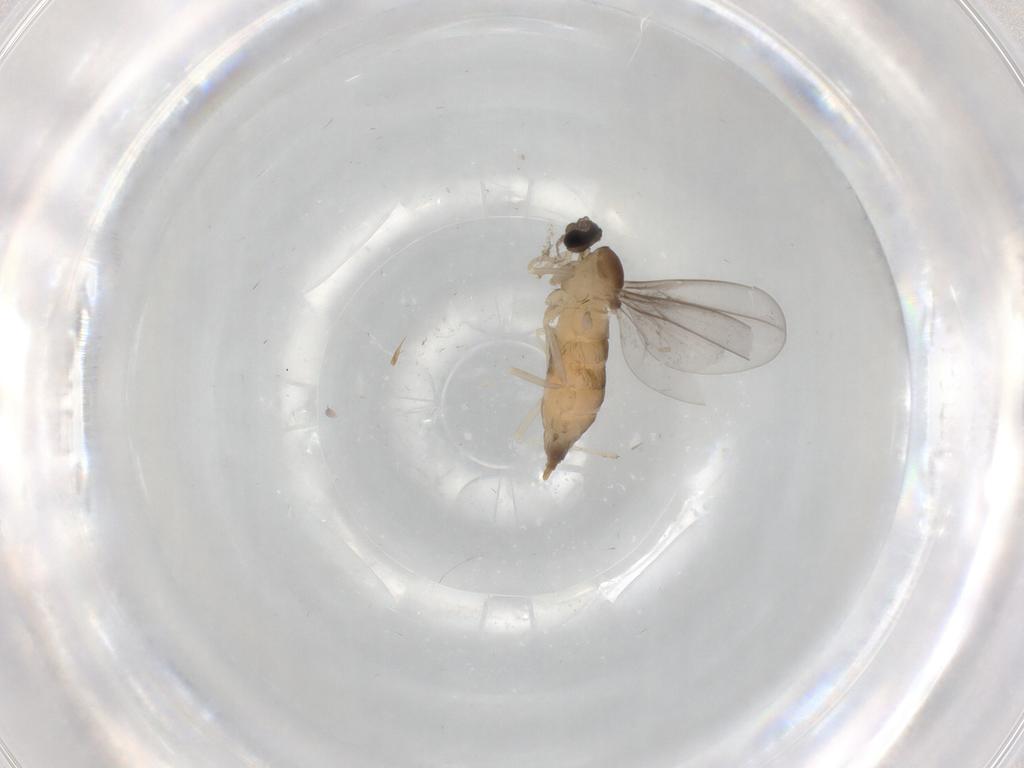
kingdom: Animalia
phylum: Arthropoda
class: Insecta
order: Diptera
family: Cecidomyiidae
